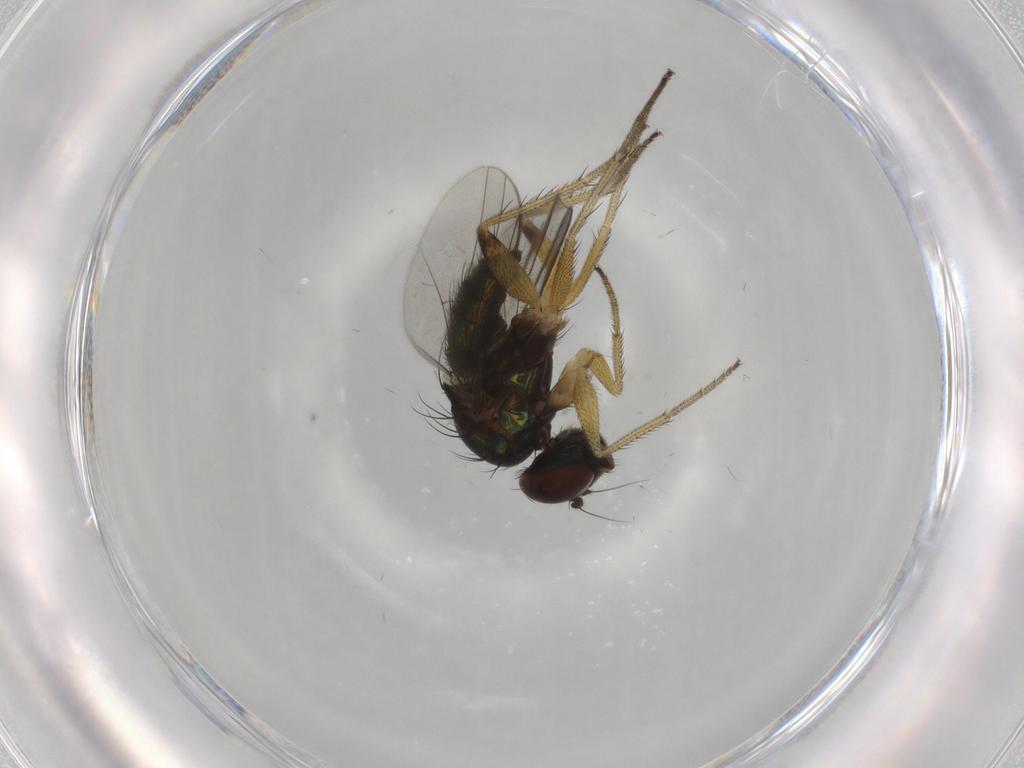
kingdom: Animalia
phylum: Arthropoda
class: Insecta
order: Diptera
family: Dolichopodidae
